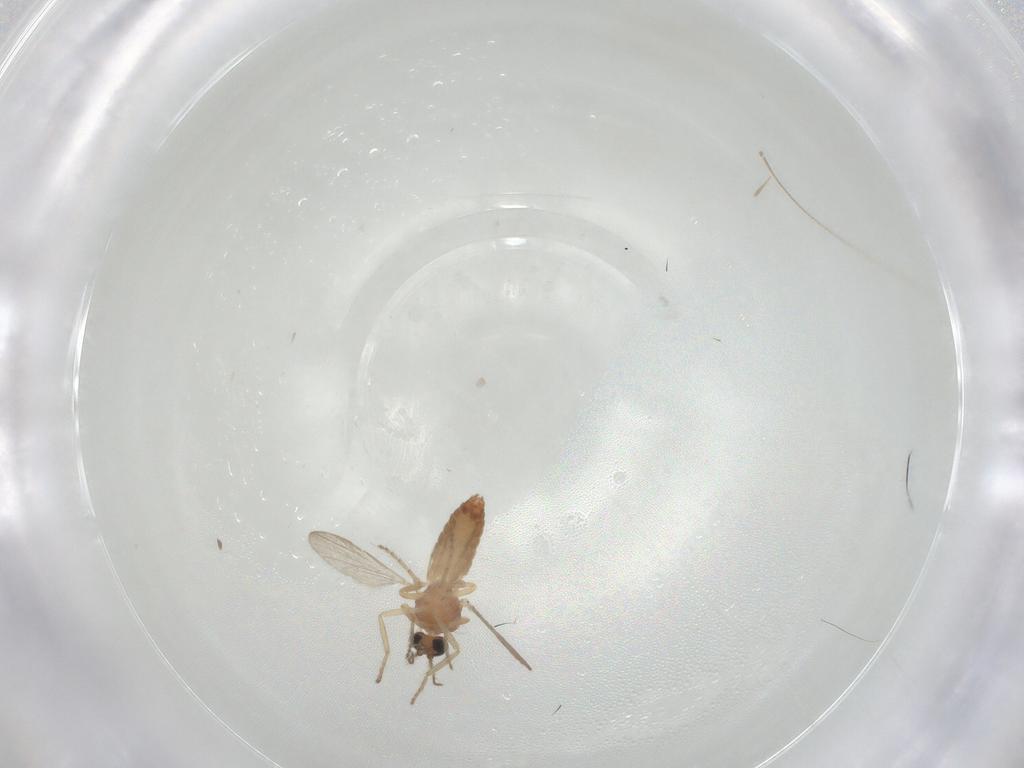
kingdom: Animalia
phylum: Arthropoda
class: Insecta
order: Diptera
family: Ceratopogonidae
